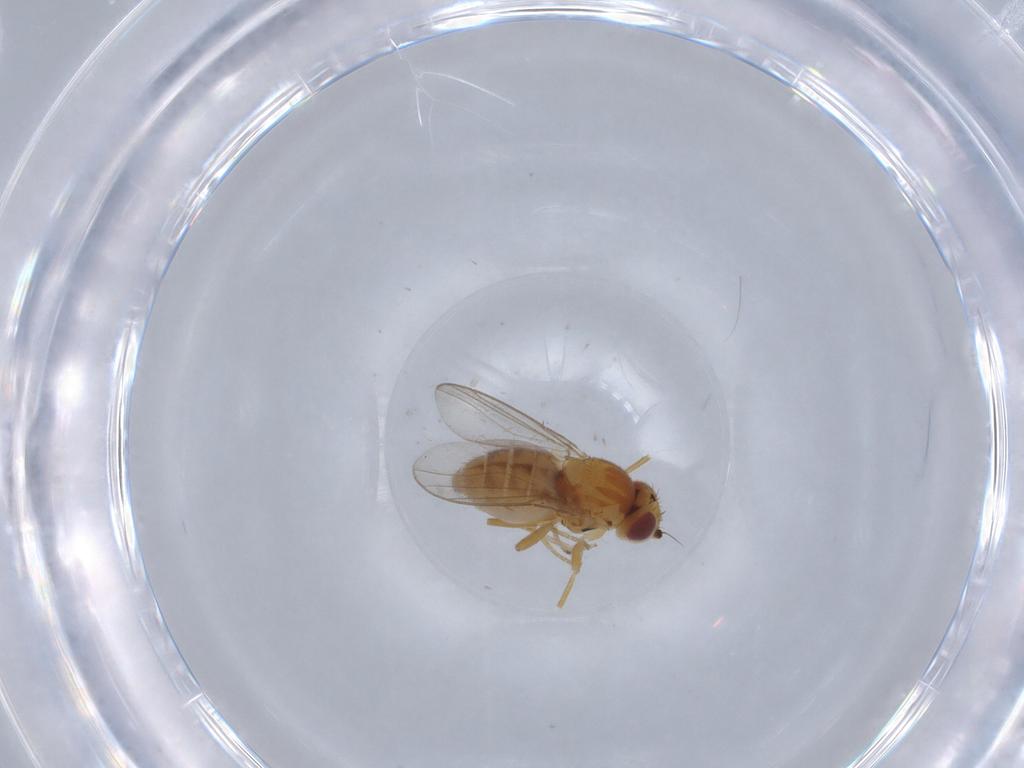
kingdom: Animalia
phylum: Arthropoda
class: Insecta
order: Diptera
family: Chloropidae
